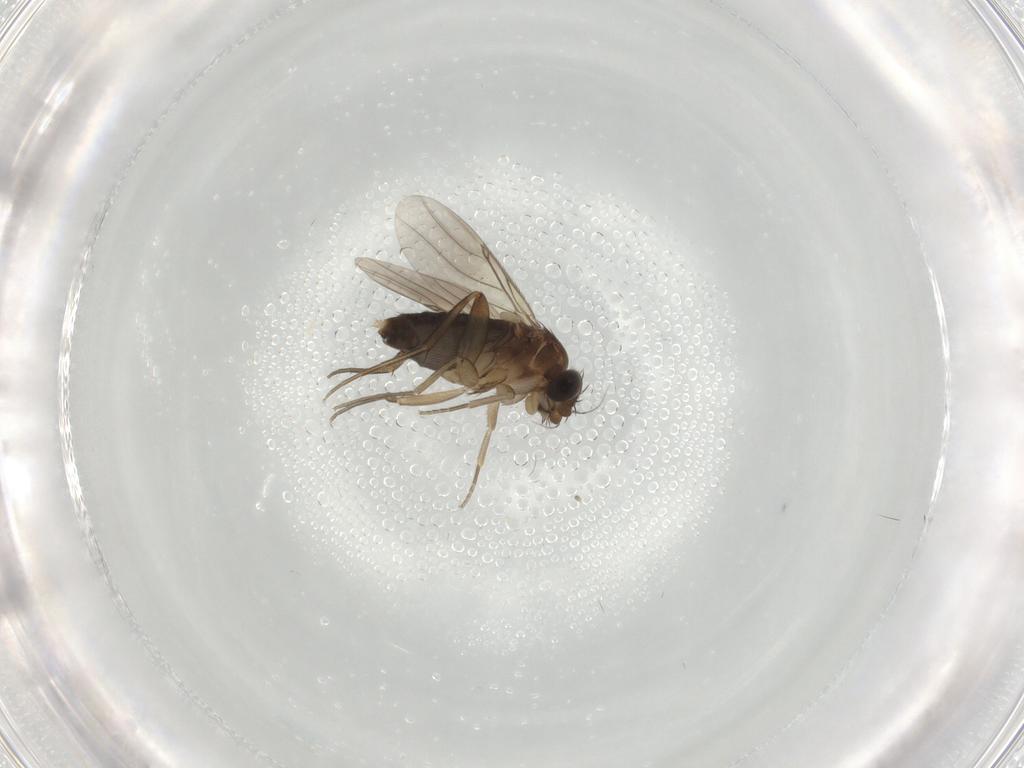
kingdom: Animalia
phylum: Arthropoda
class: Insecta
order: Diptera
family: Phoridae
